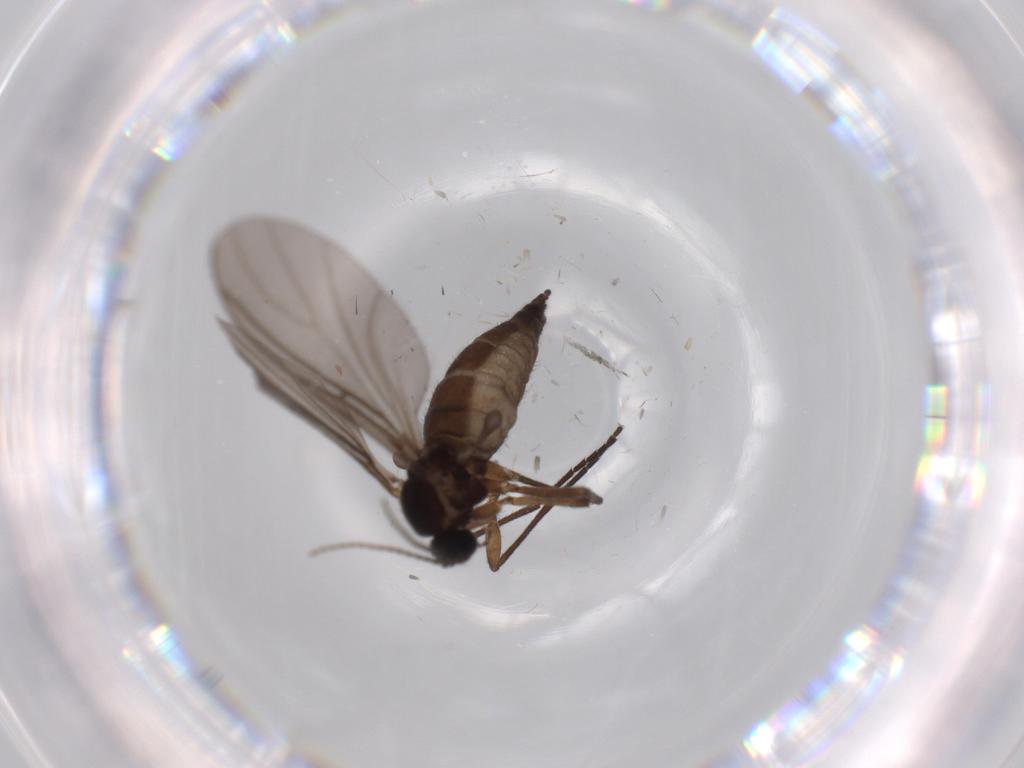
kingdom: Animalia
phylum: Arthropoda
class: Insecta
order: Diptera
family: Sciaridae
